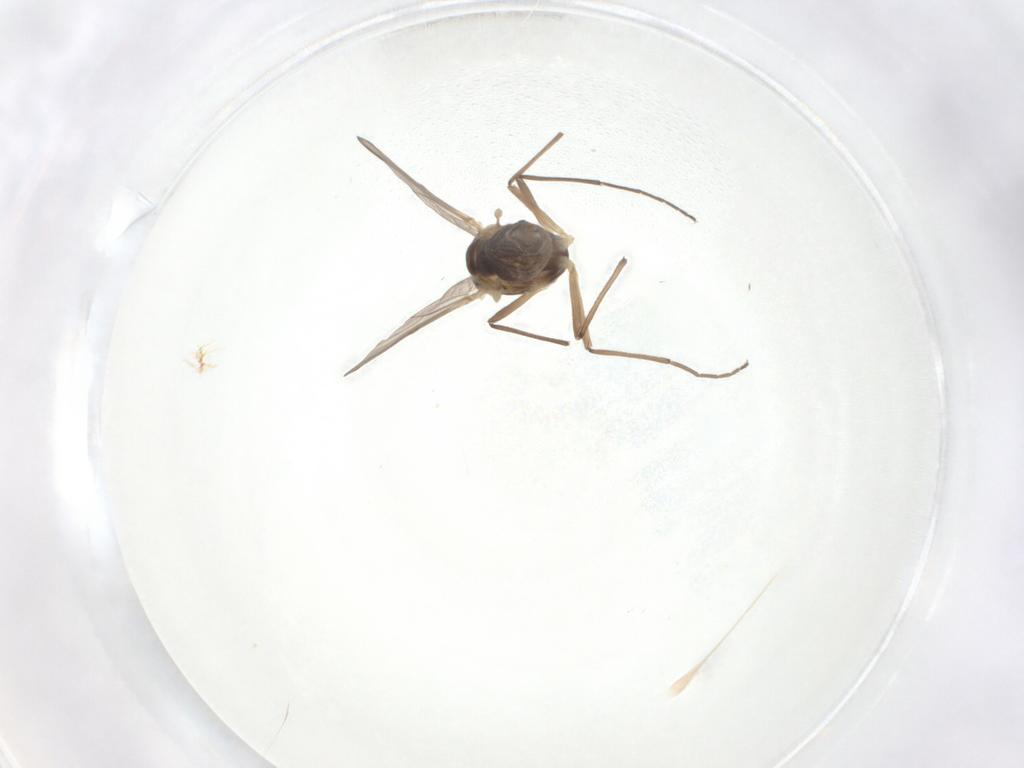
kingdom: Animalia
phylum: Arthropoda
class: Insecta
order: Diptera
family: Chironomidae
